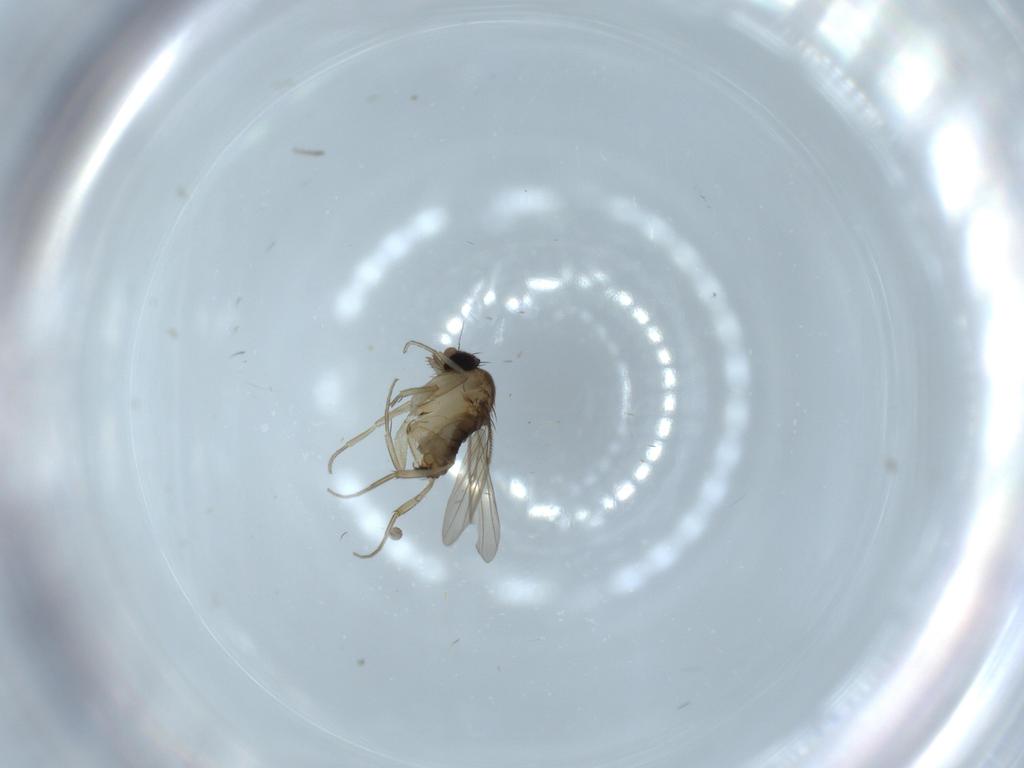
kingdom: Animalia
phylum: Arthropoda
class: Insecta
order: Diptera
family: Phoridae
